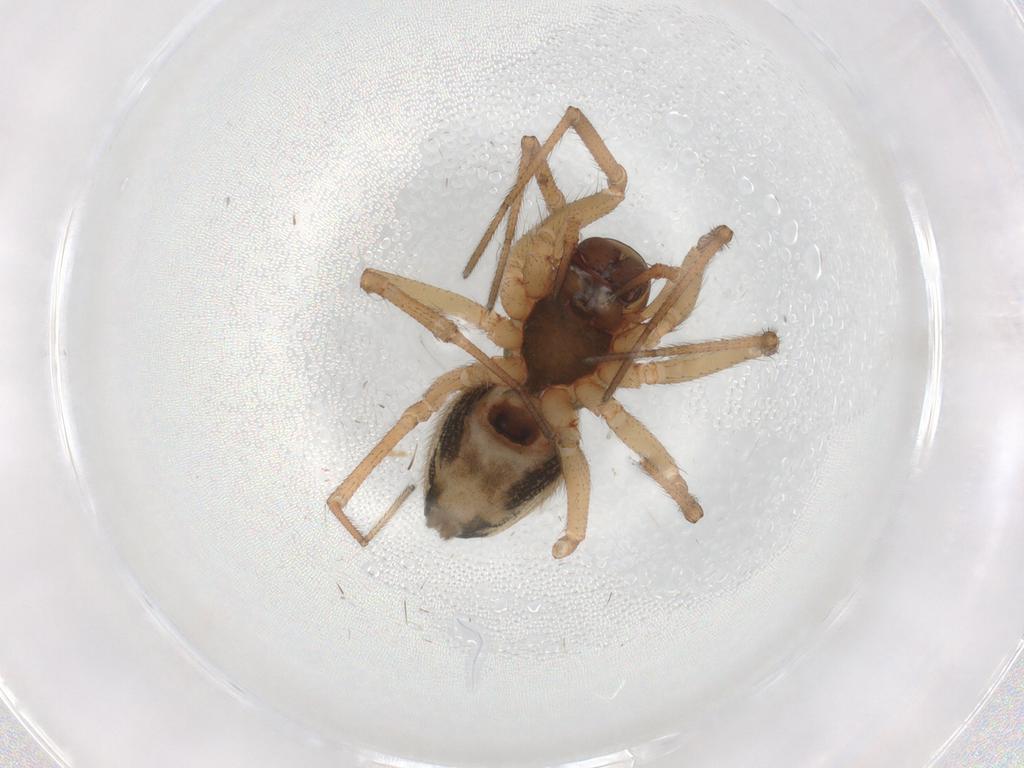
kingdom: Animalia
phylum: Arthropoda
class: Arachnida
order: Araneae
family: Linyphiidae
